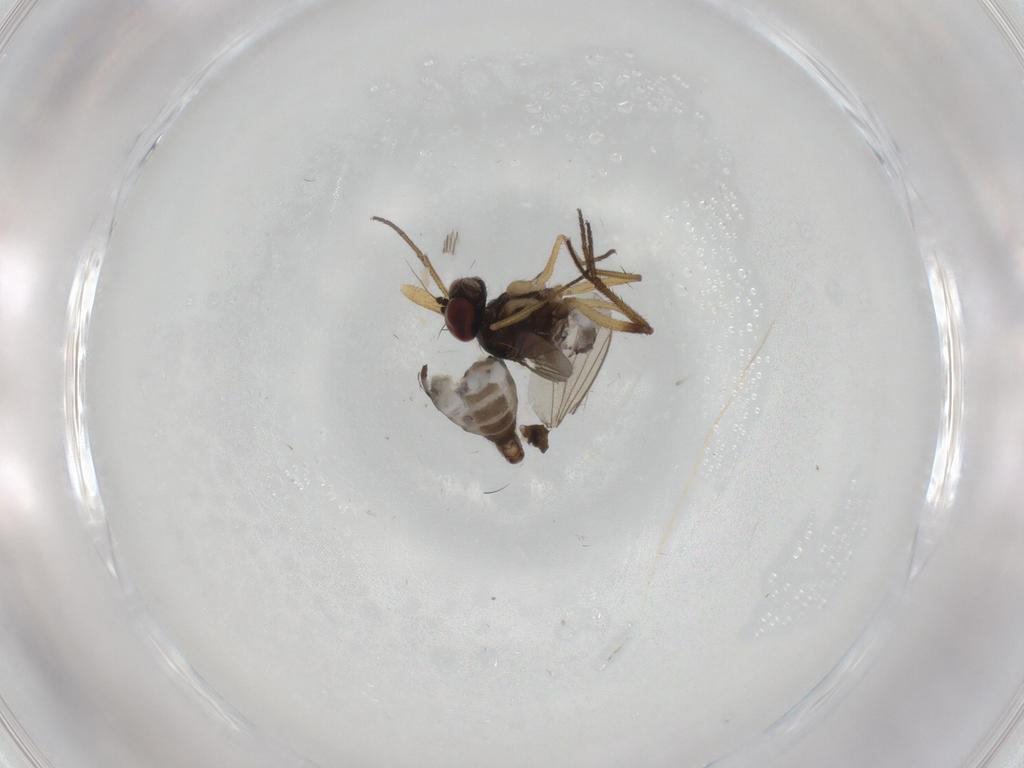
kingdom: Animalia
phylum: Arthropoda
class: Insecta
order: Diptera
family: Dolichopodidae
